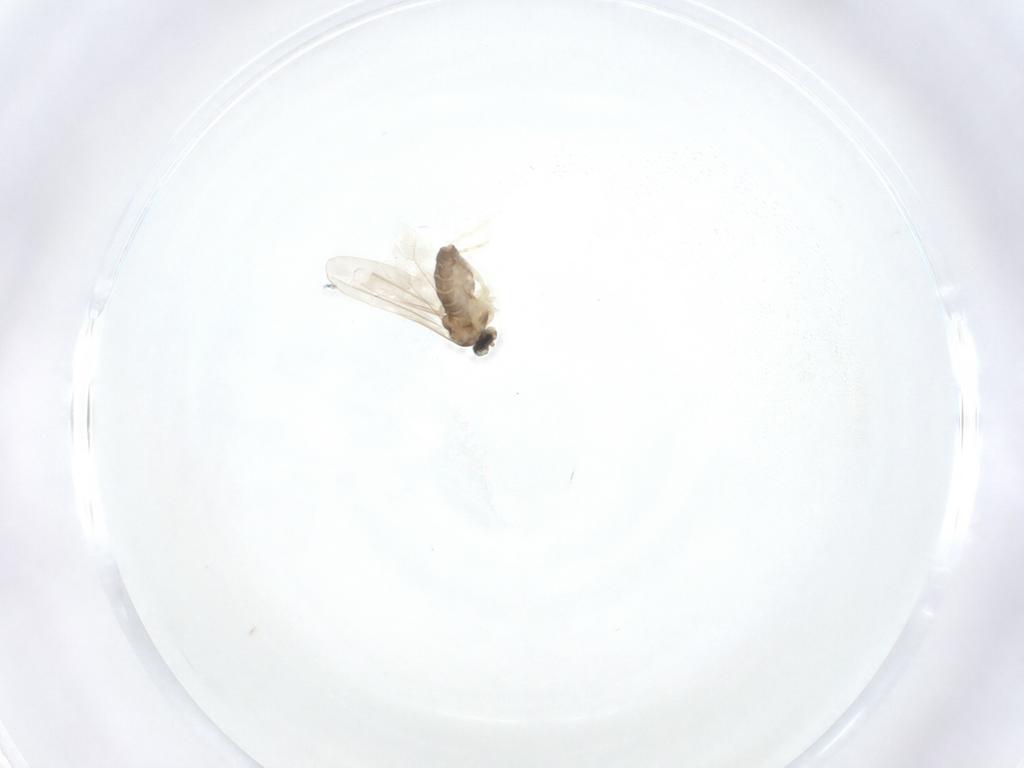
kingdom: Animalia
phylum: Arthropoda
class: Insecta
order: Diptera
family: Cecidomyiidae
